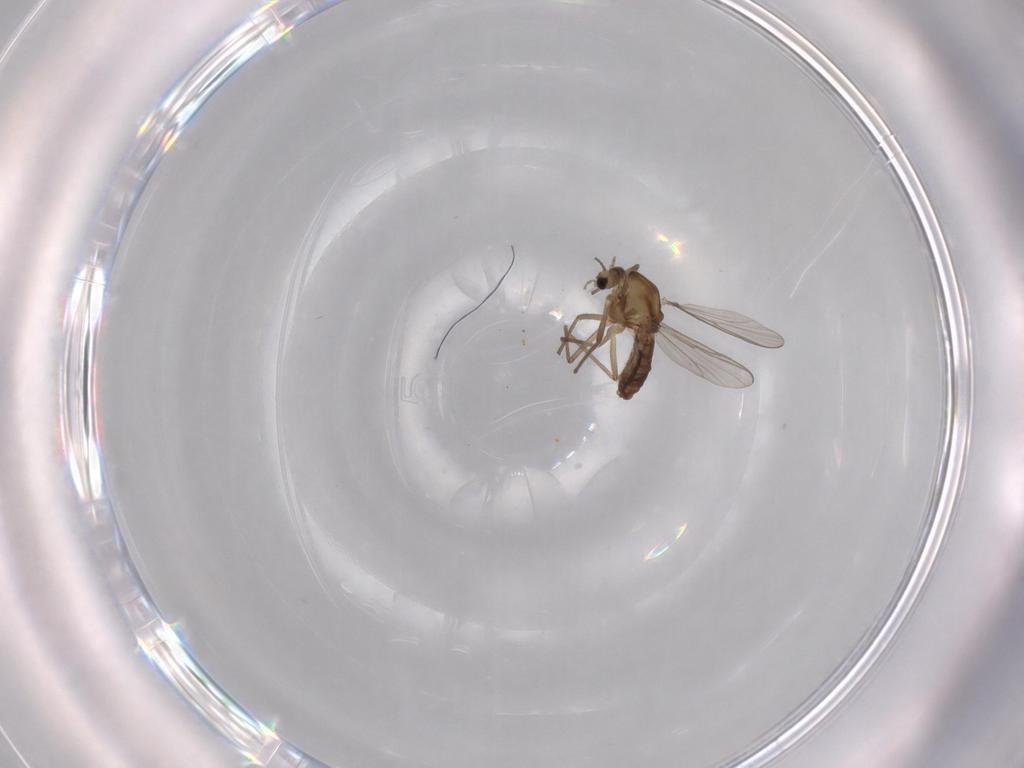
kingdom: Animalia
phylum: Arthropoda
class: Insecta
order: Diptera
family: Chironomidae
